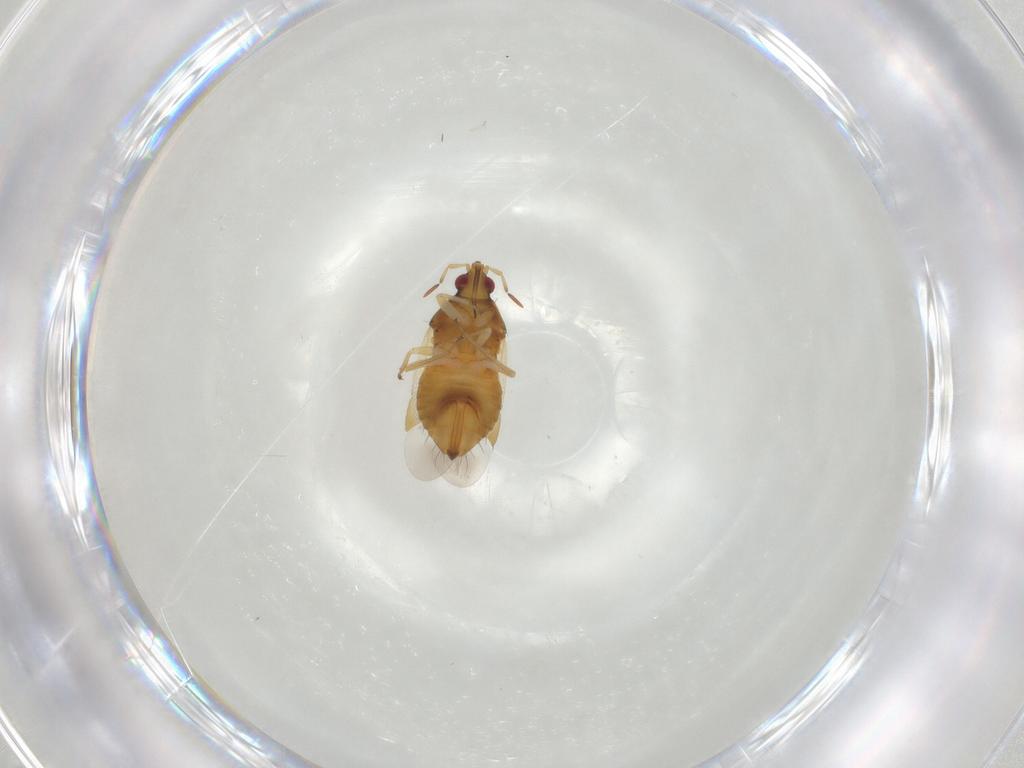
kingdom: Animalia
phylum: Arthropoda
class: Insecta
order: Hemiptera
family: Anthocoridae
